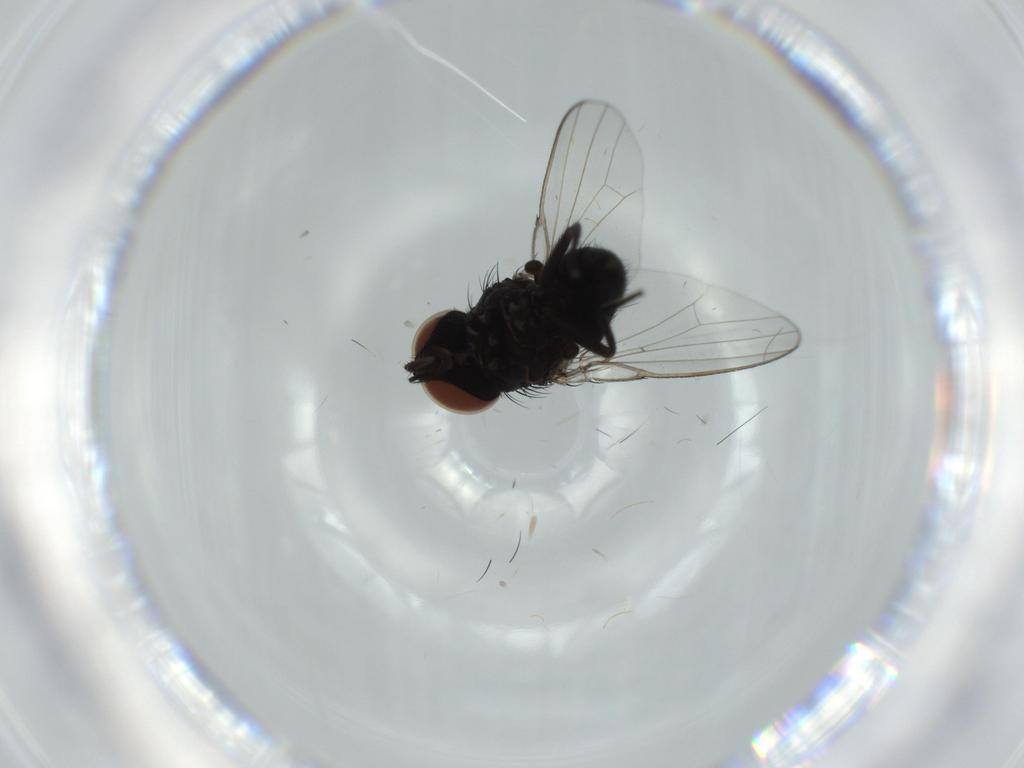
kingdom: Animalia
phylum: Arthropoda
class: Insecta
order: Diptera
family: Milichiidae
